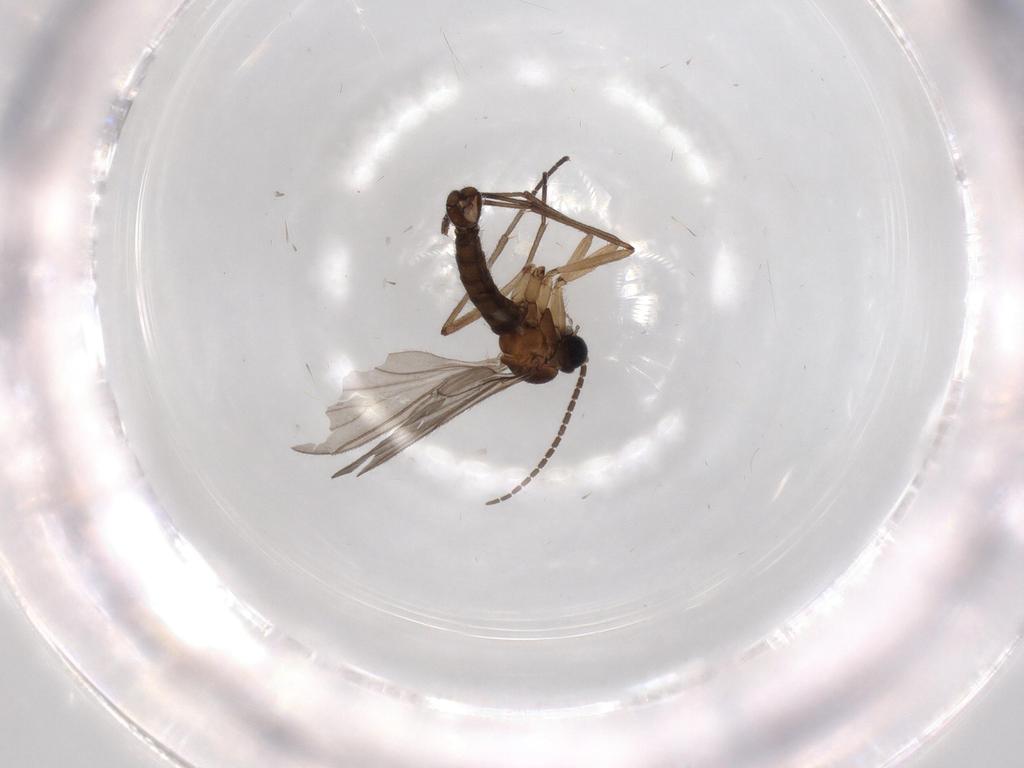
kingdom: Animalia
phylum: Arthropoda
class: Insecta
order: Diptera
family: Sciaridae
